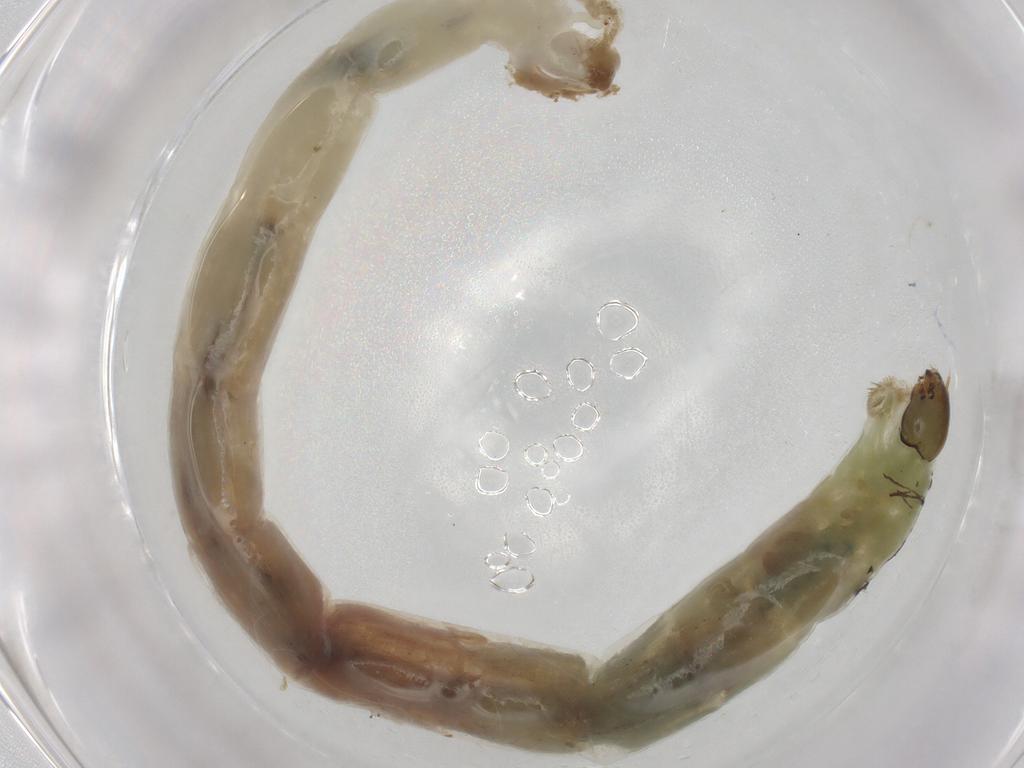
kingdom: Animalia
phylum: Arthropoda
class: Insecta
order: Diptera
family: Chironomidae
